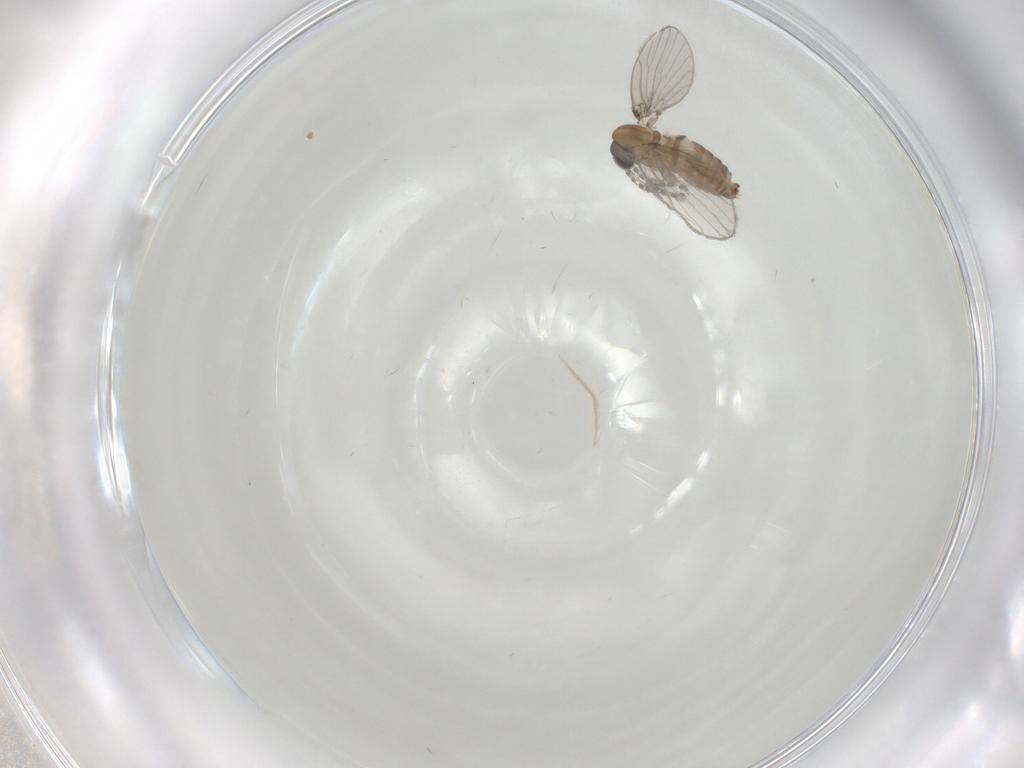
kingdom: Animalia
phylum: Arthropoda
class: Insecta
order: Diptera
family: Psychodidae
